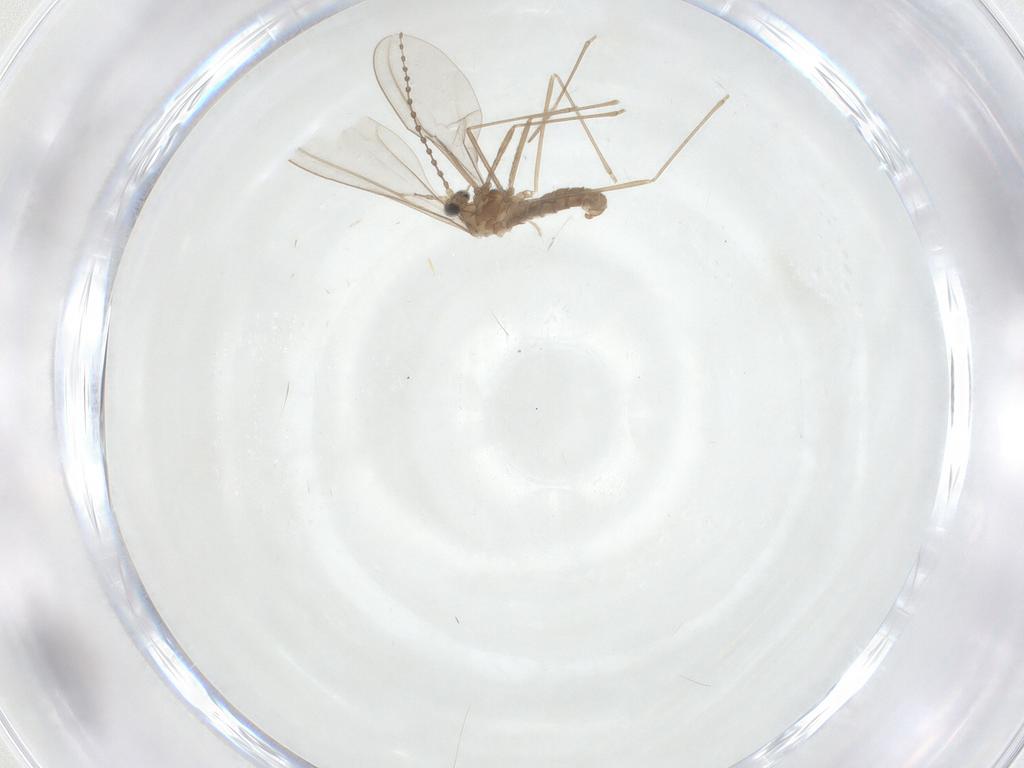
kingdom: Animalia
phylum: Arthropoda
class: Insecta
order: Diptera
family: Cecidomyiidae
